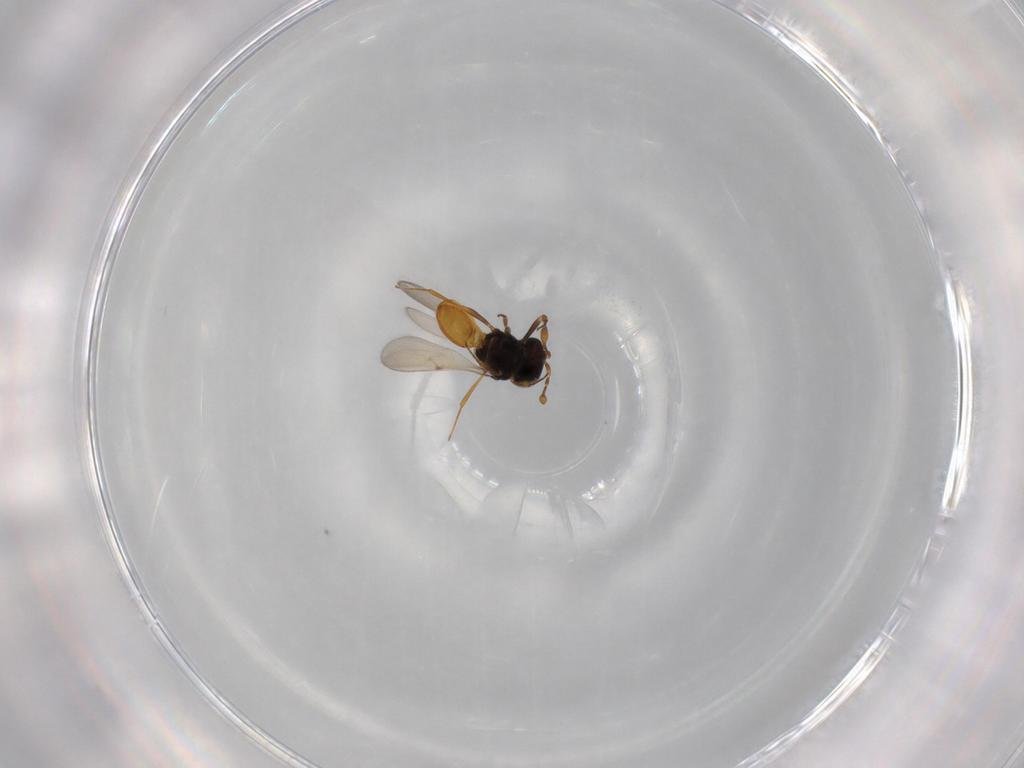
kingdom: Animalia
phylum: Arthropoda
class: Insecta
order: Hymenoptera
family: Scelionidae
